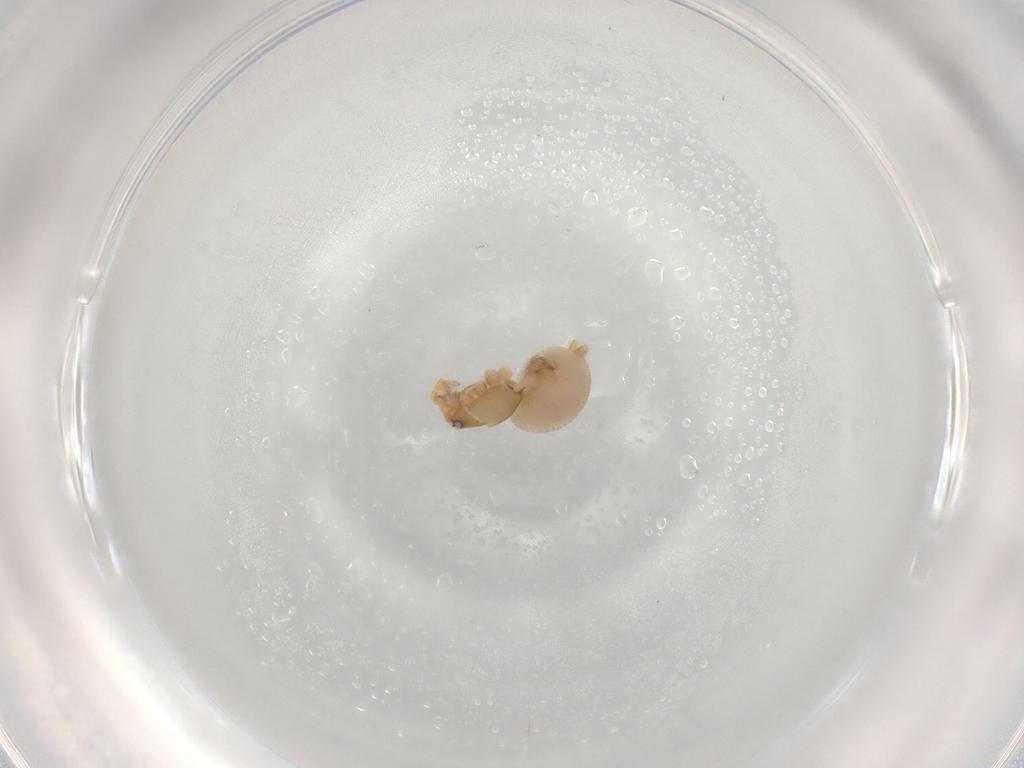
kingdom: Animalia
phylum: Arthropoda
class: Arachnida
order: Araneae
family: Oonopidae
